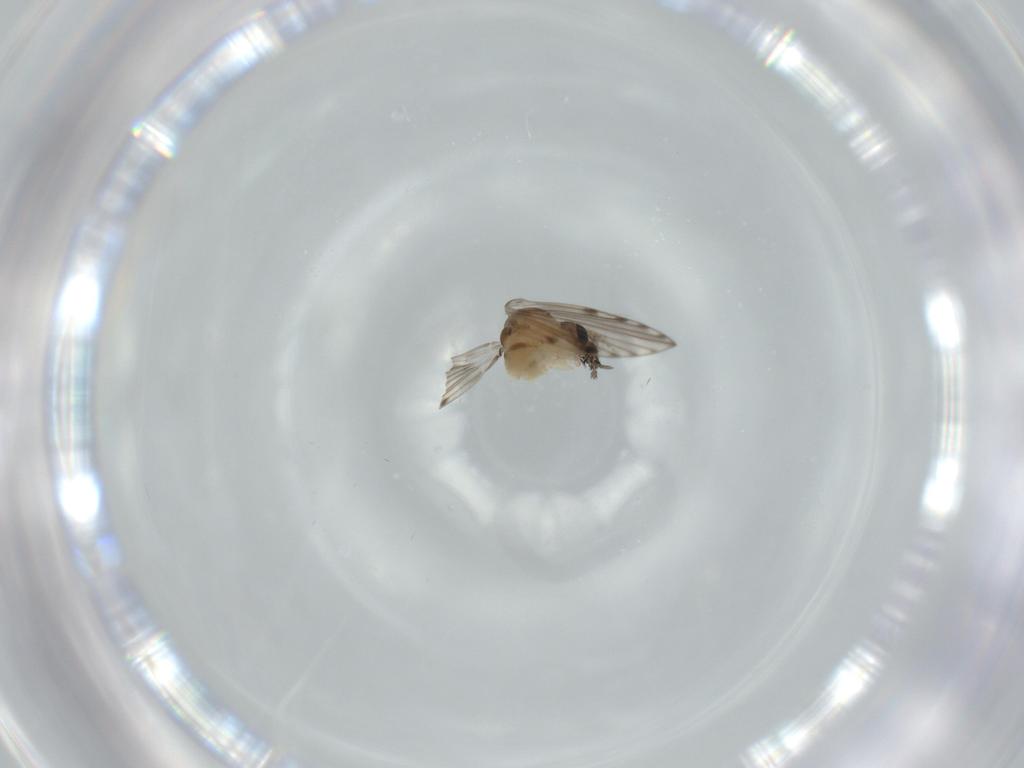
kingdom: Animalia
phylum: Arthropoda
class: Insecta
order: Diptera
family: Psychodidae
